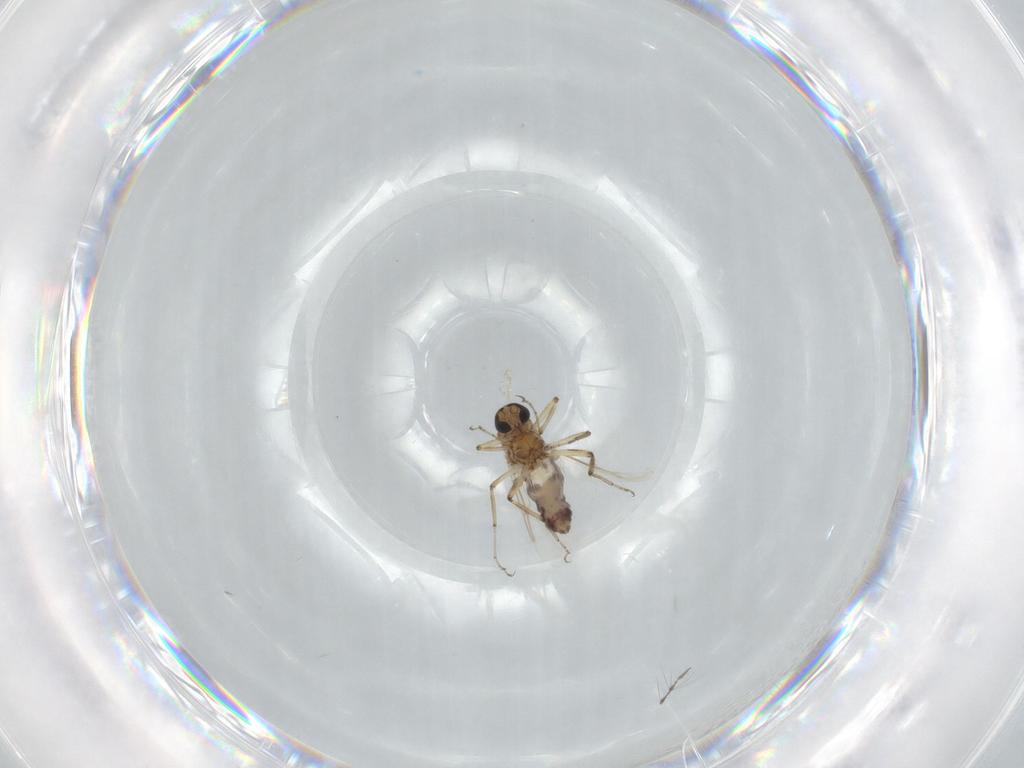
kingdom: Animalia
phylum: Arthropoda
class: Insecta
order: Diptera
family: Ceratopogonidae
